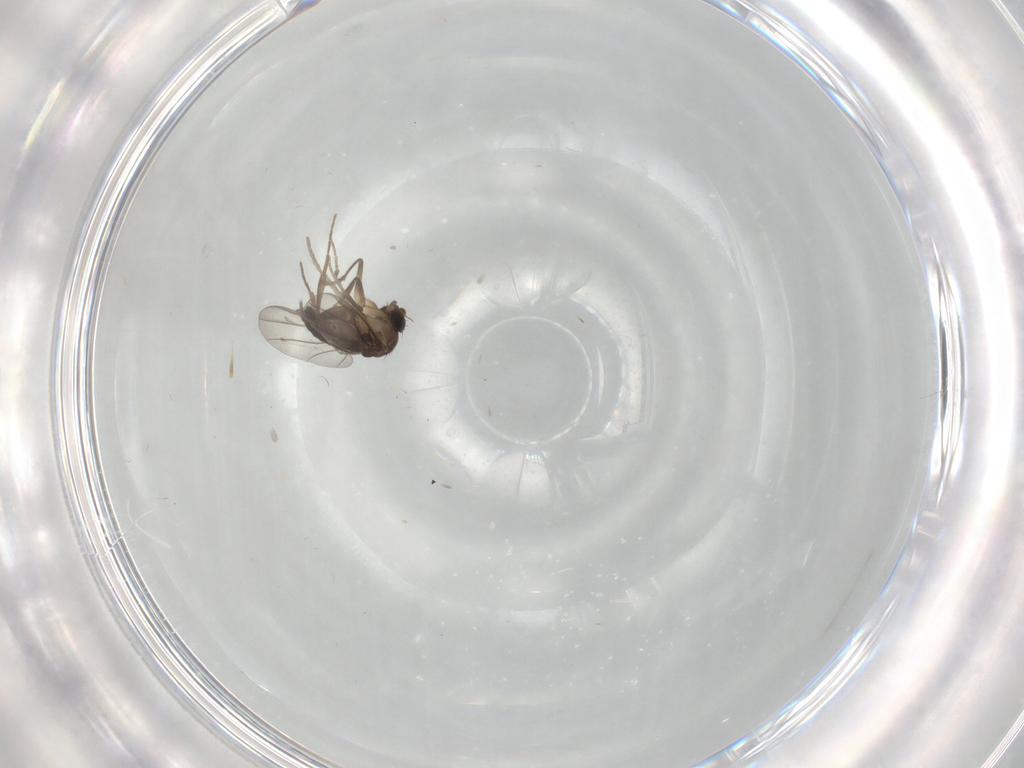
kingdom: Animalia
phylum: Arthropoda
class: Insecta
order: Diptera
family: Phoridae
